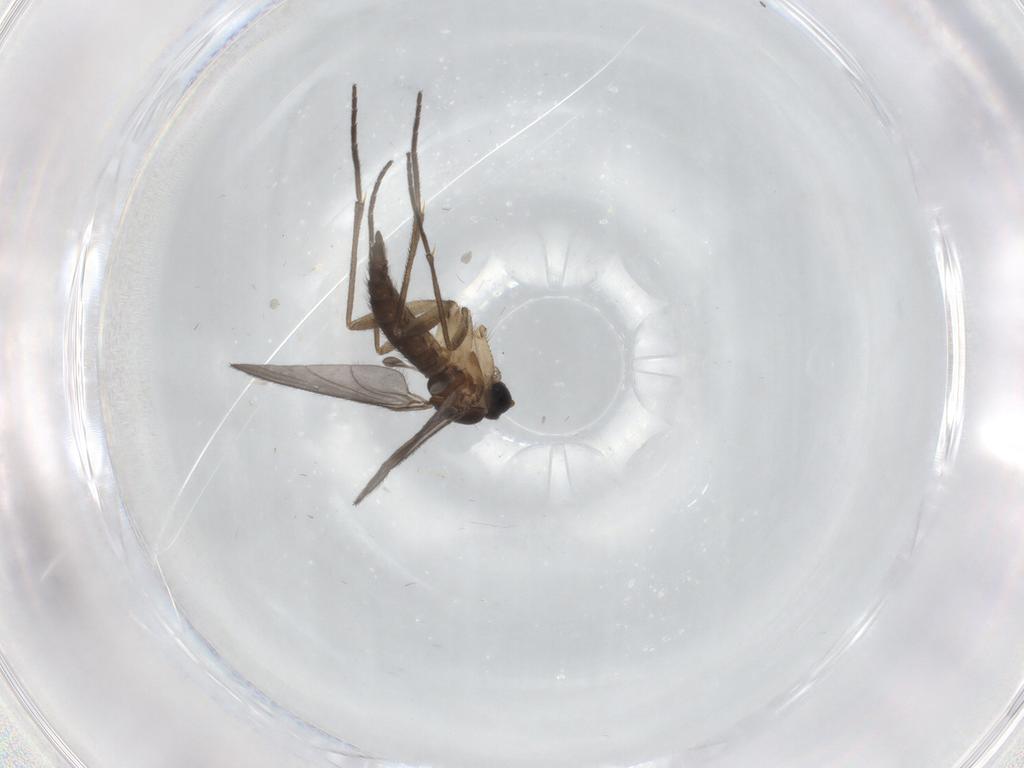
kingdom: Animalia
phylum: Arthropoda
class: Insecta
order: Diptera
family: Sciaridae
